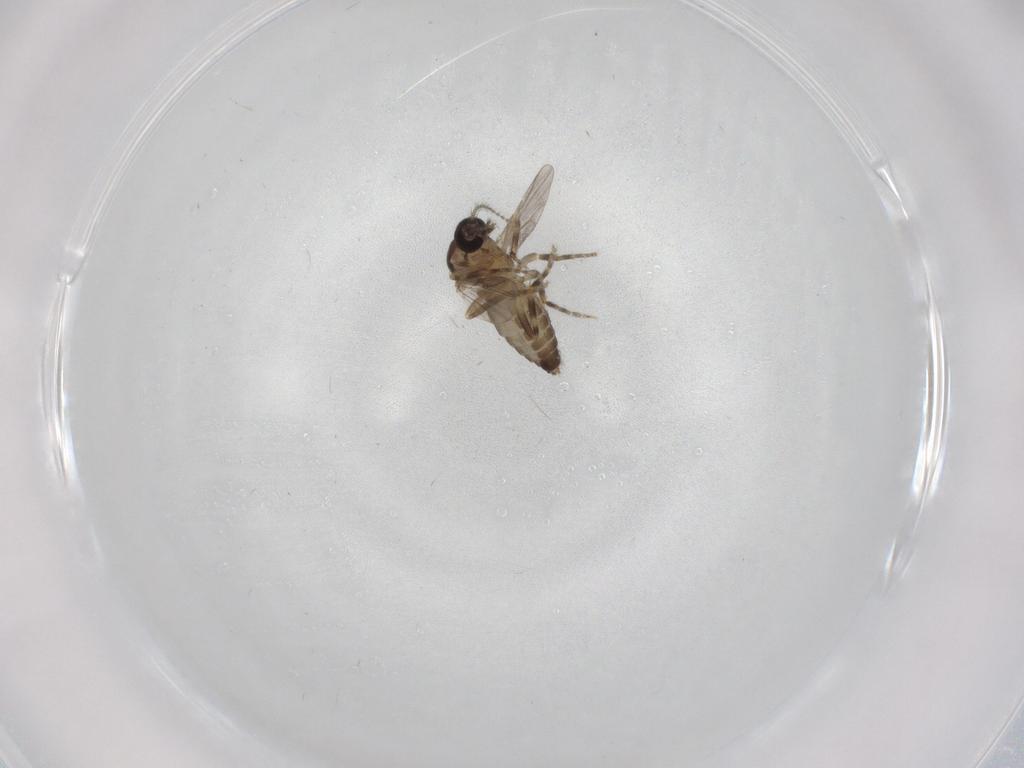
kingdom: Animalia
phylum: Arthropoda
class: Insecta
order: Diptera
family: Ceratopogonidae
